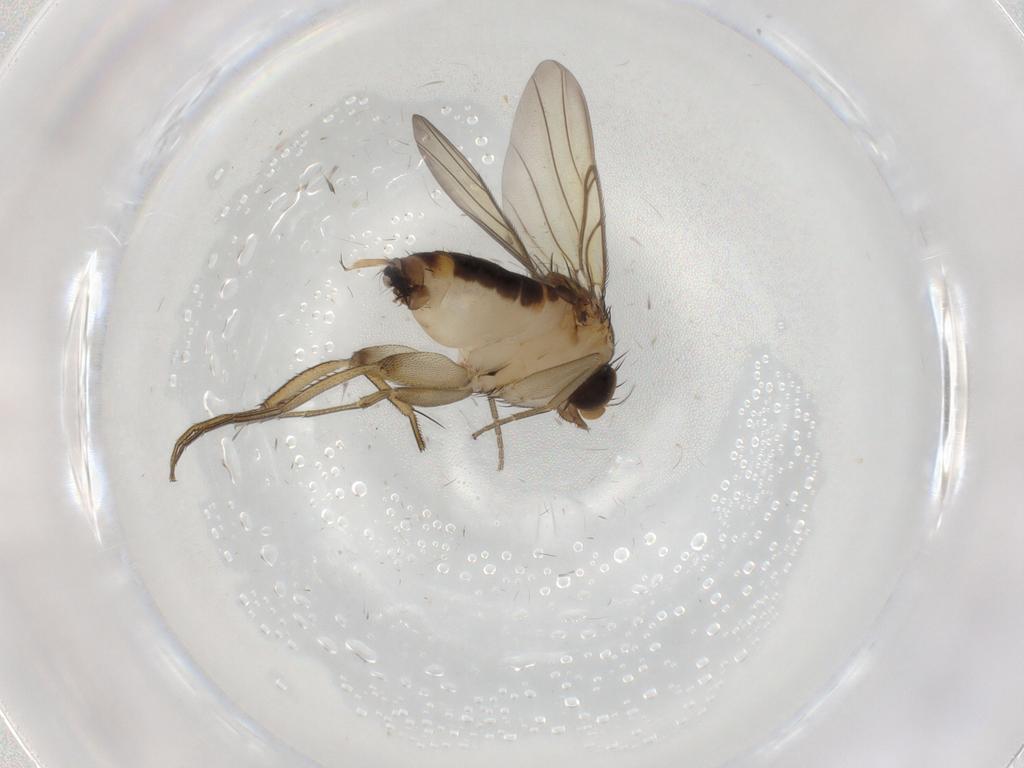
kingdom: Animalia
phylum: Arthropoda
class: Insecta
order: Diptera
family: Phoridae
